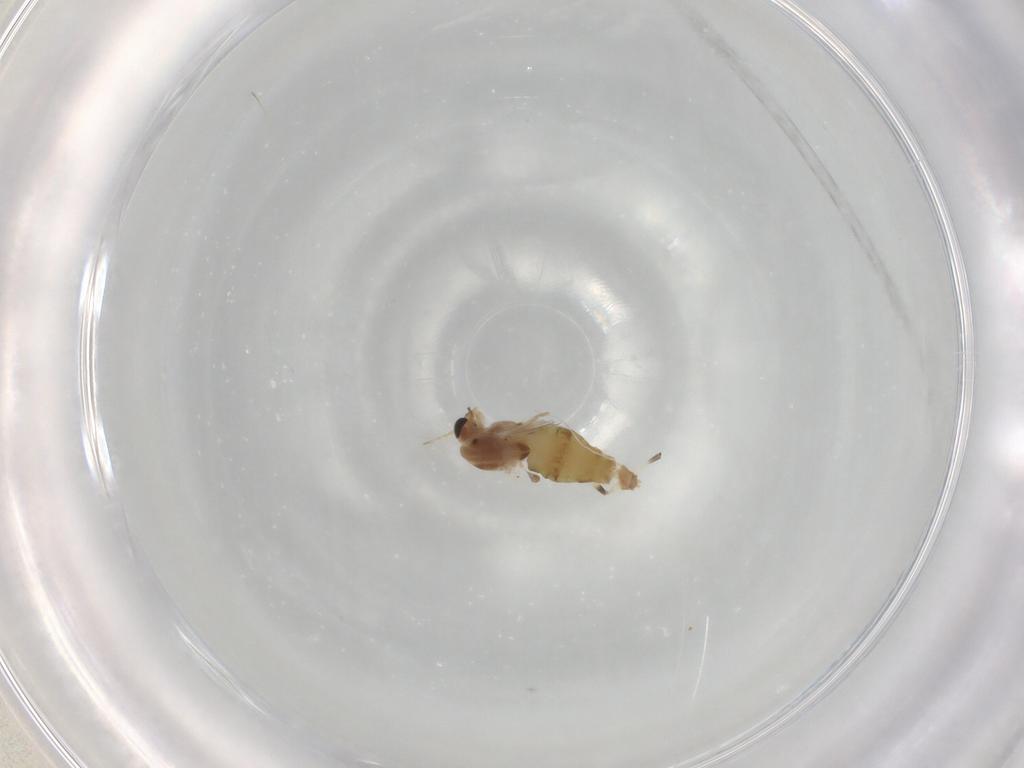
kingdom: Animalia
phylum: Arthropoda
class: Insecta
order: Diptera
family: Chironomidae
